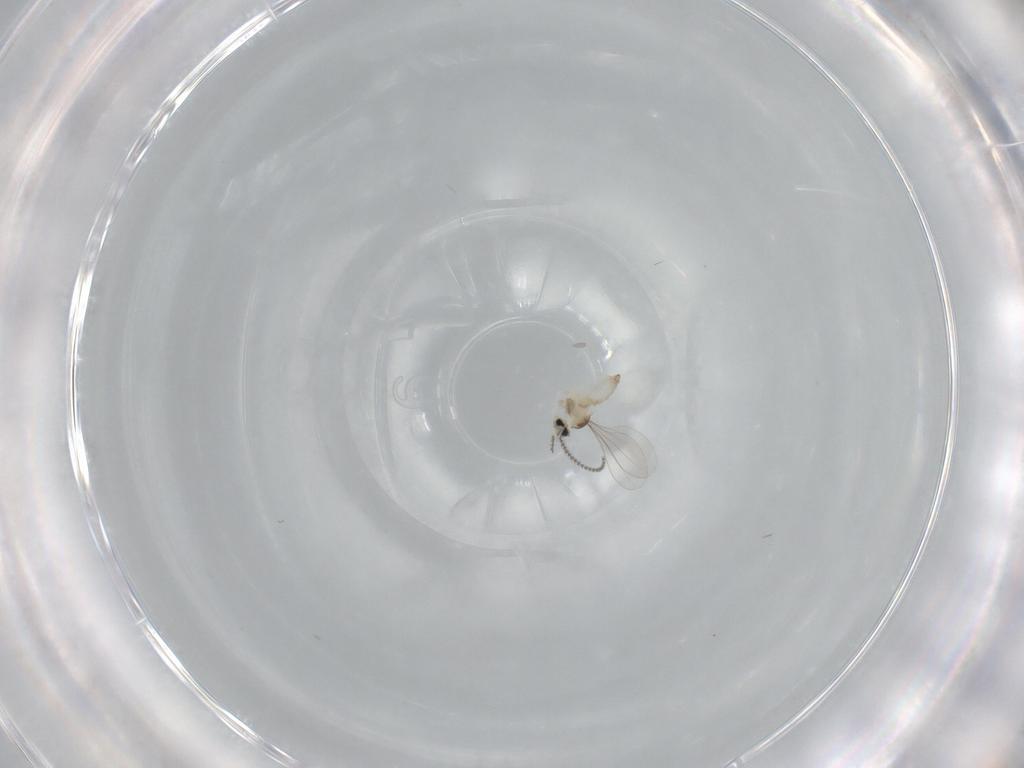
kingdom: Animalia
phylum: Arthropoda
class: Insecta
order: Diptera
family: Cecidomyiidae
